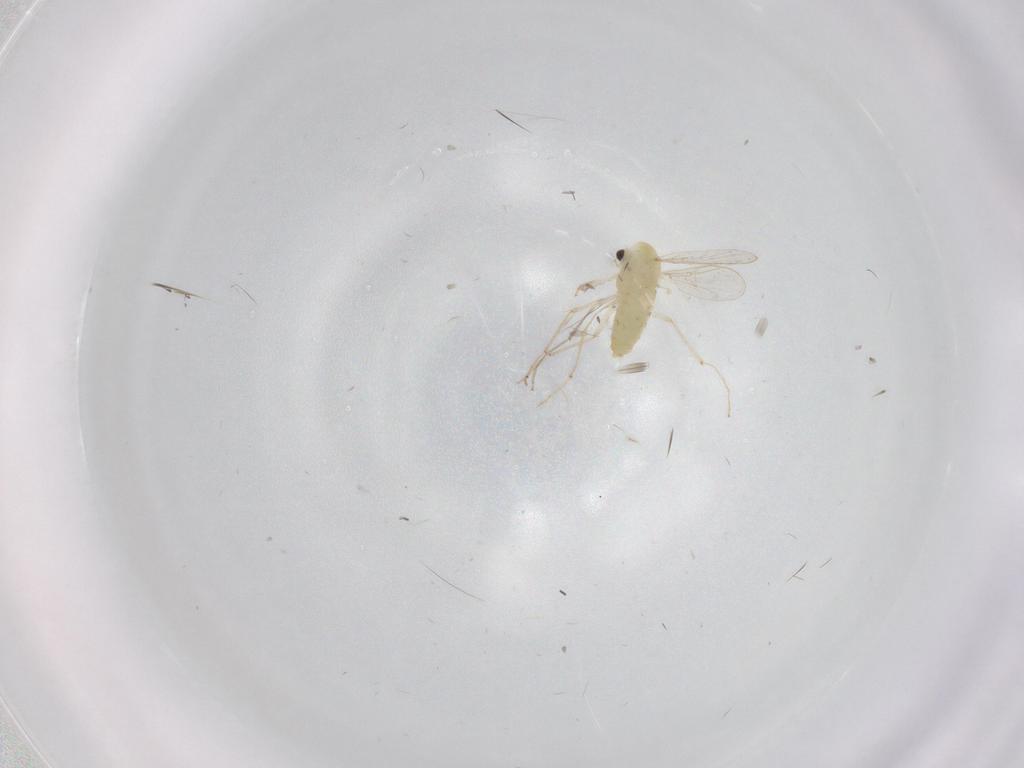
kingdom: Animalia
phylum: Arthropoda
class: Insecta
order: Diptera
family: Chironomidae
